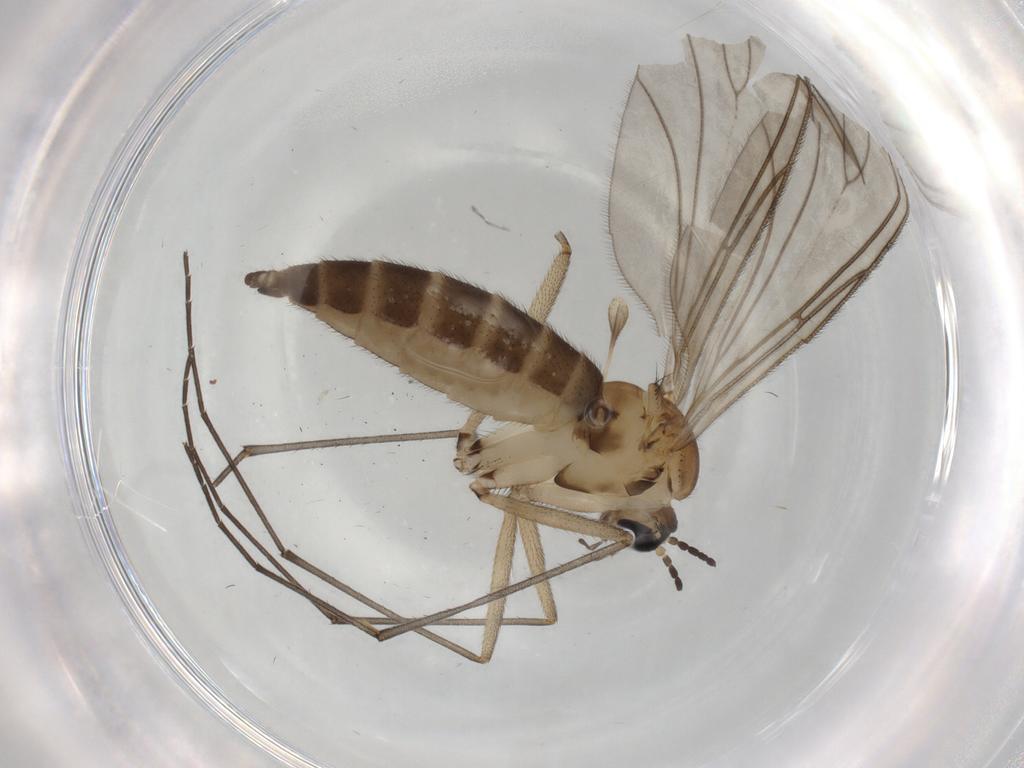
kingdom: Animalia
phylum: Arthropoda
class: Insecta
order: Diptera
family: Sciaridae
